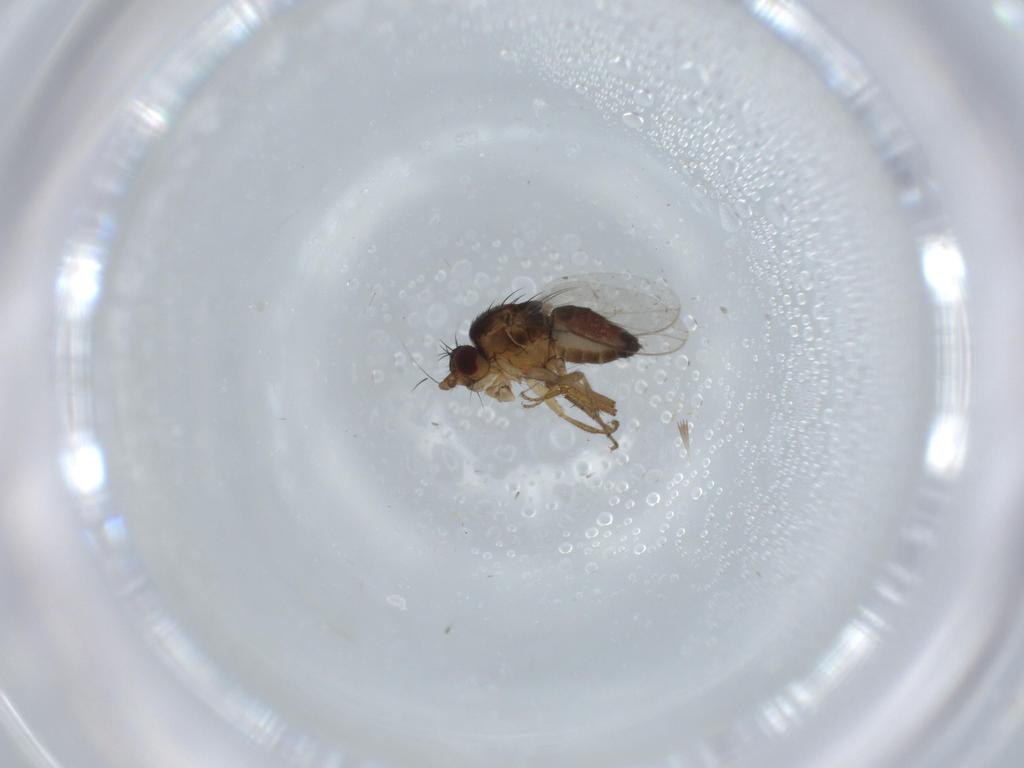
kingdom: Animalia
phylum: Arthropoda
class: Insecta
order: Diptera
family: Sphaeroceridae
